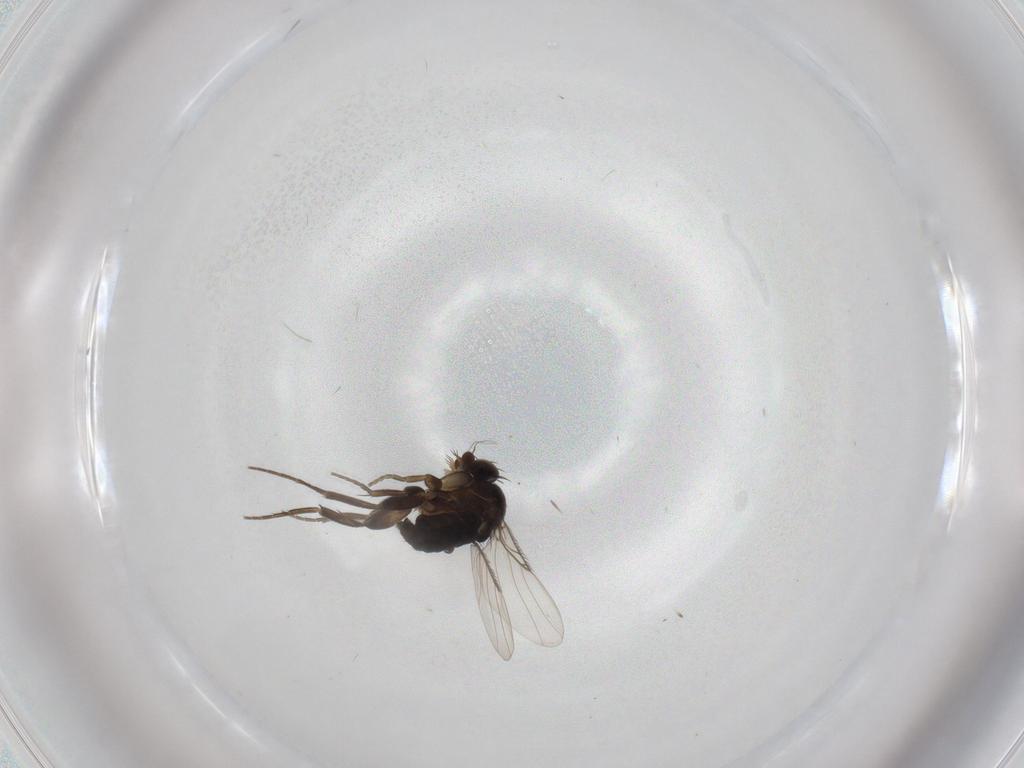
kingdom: Animalia
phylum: Arthropoda
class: Insecta
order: Diptera
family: Phoridae
